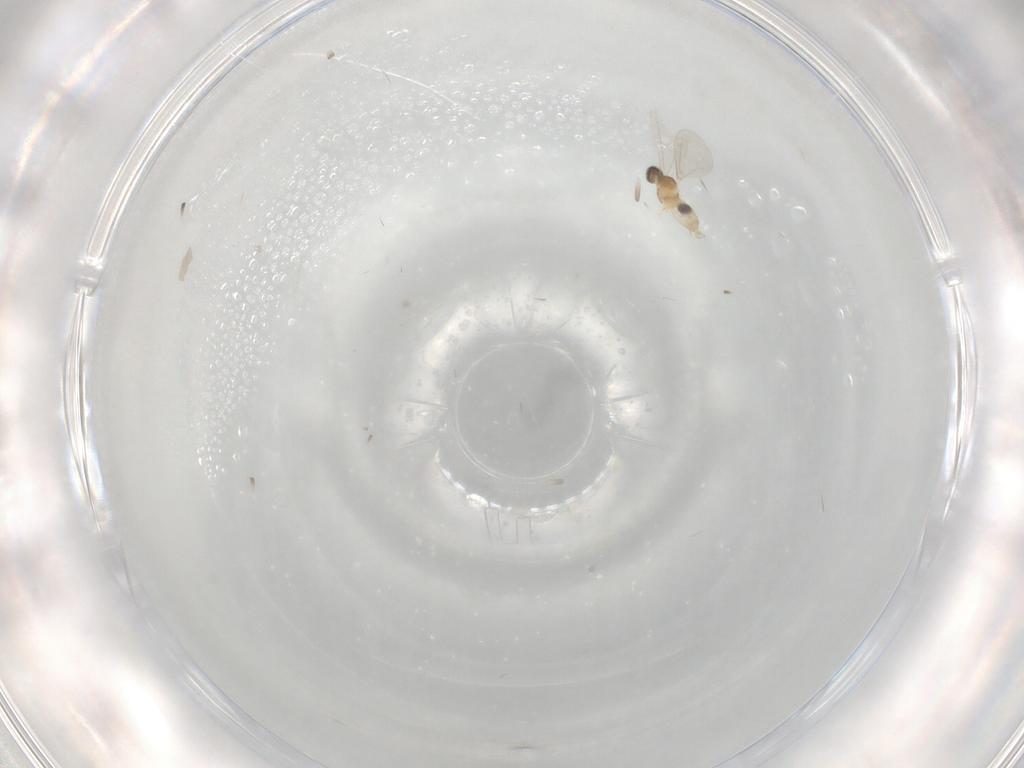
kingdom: Animalia
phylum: Arthropoda
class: Insecta
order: Diptera
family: Cecidomyiidae
